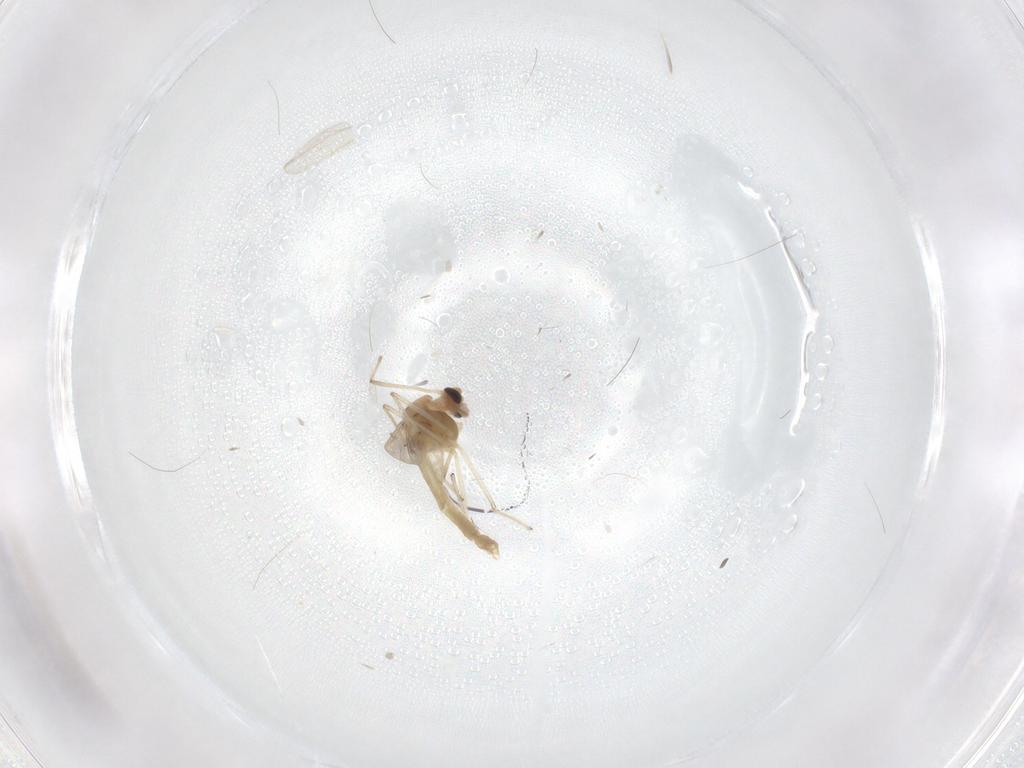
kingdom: Animalia
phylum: Arthropoda
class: Insecta
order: Diptera
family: Chironomidae
